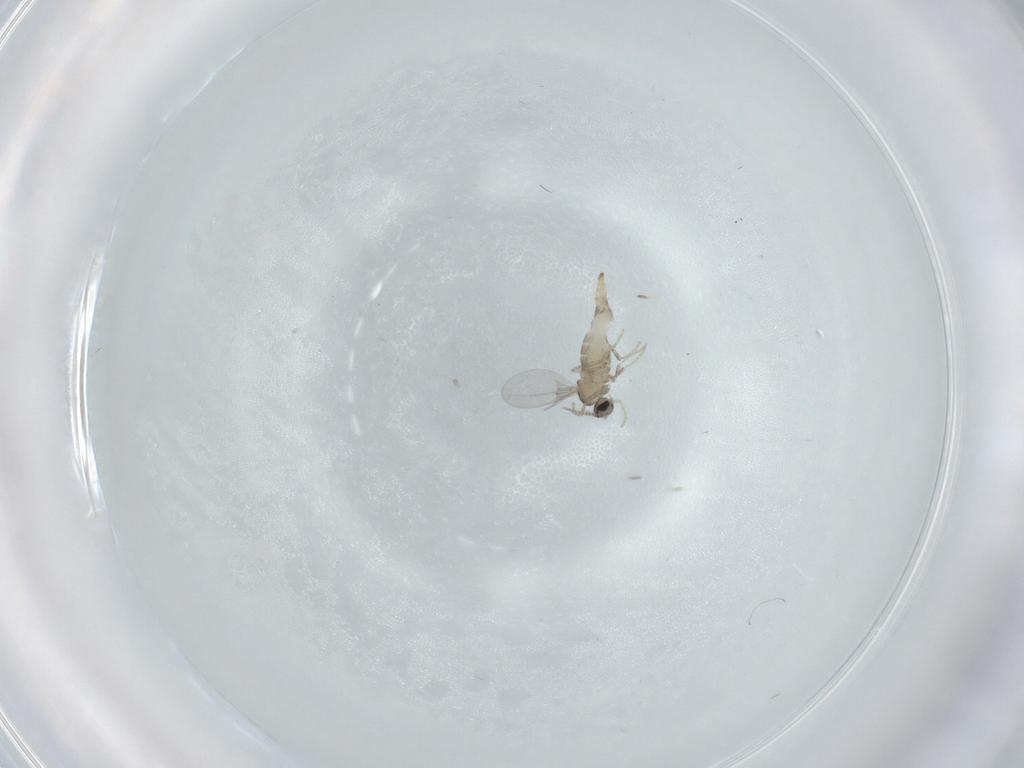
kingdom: Animalia
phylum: Arthropoda
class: Insecta
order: Diptera
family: Cecidomyiidae
